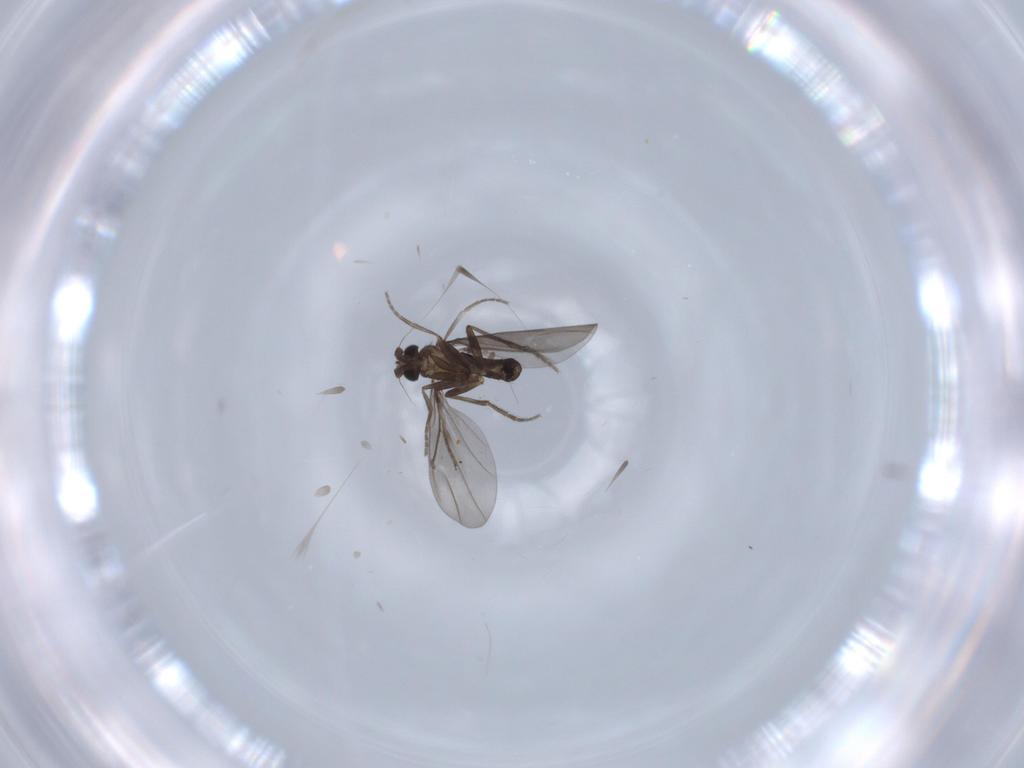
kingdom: Animalia
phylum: Arthropoda
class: Insecta
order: Diptera
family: Phoridae
